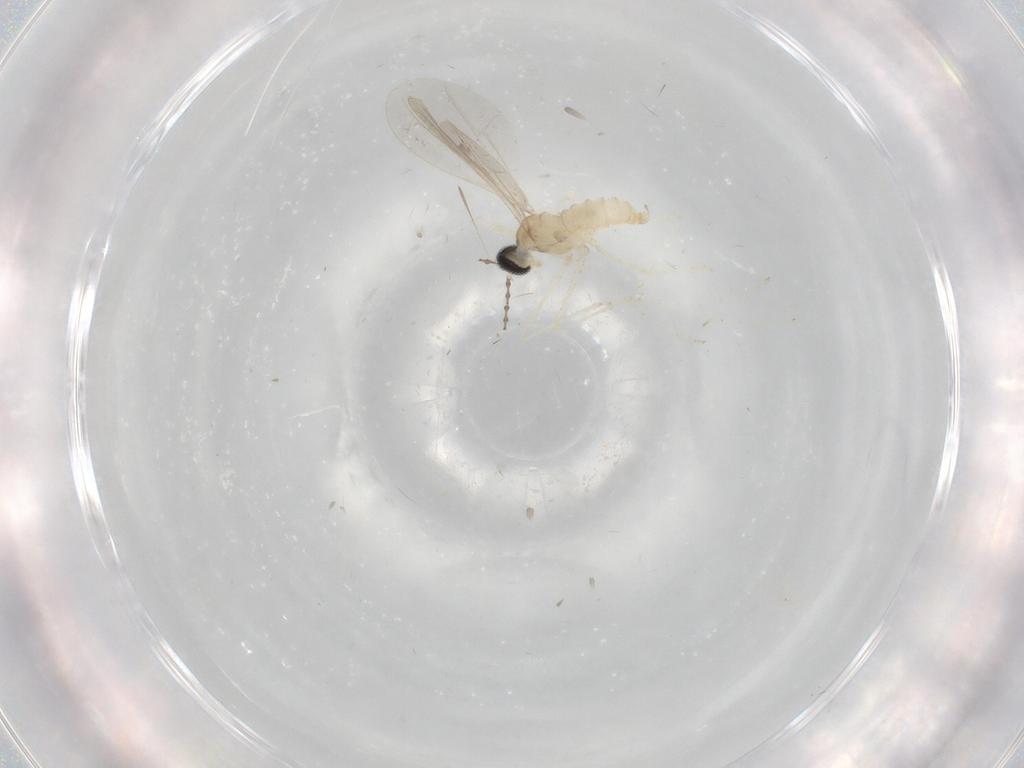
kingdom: Animalia
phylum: Arthropoda
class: Insecta
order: Diptera
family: Cecidomyiidae
